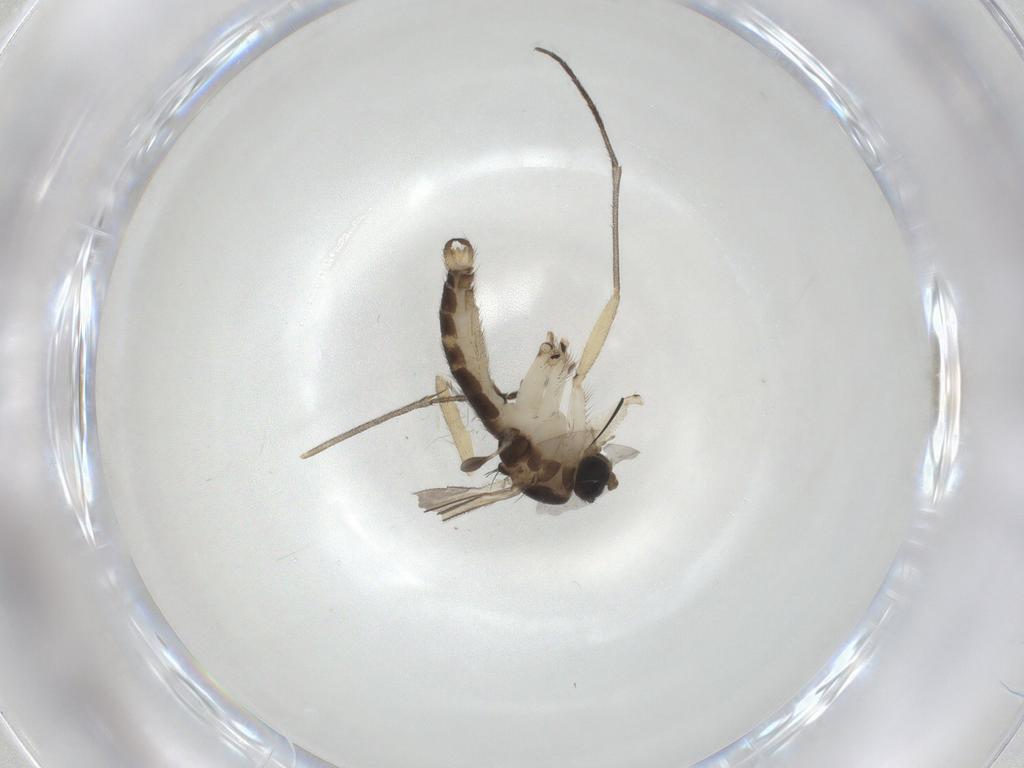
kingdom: Animalia
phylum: Arthropoda
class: Insecta
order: Diptera
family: Sciaridae
